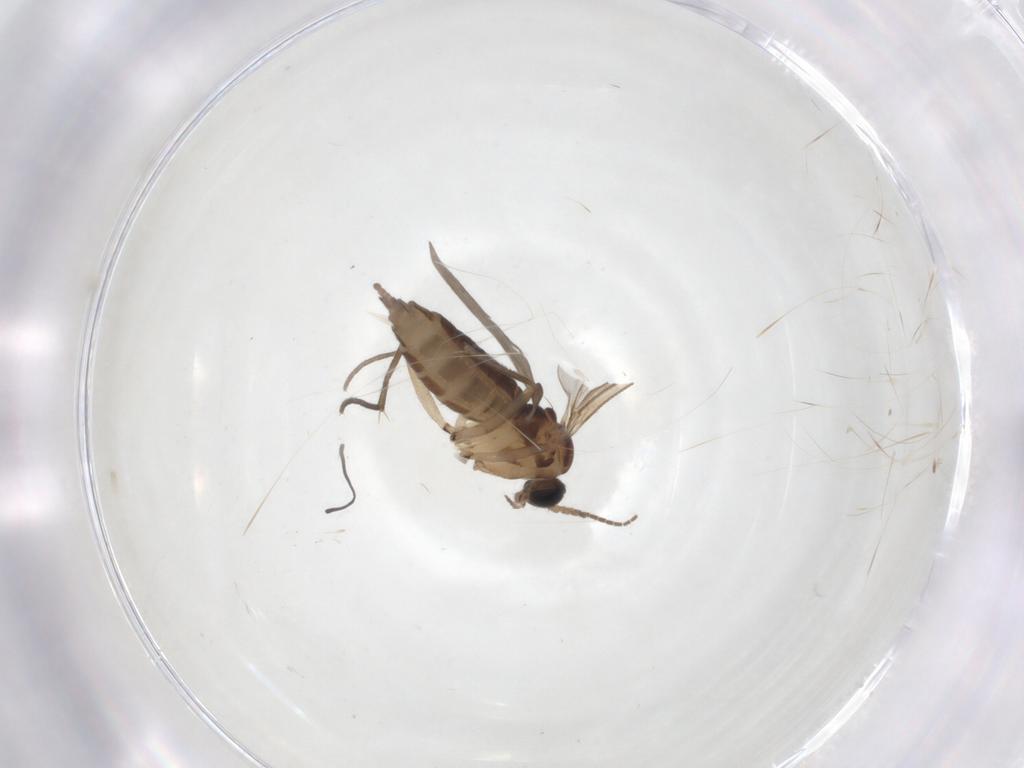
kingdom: Animalia
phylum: Arthropoda
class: Insecta
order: Diptera
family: Sciaridae
